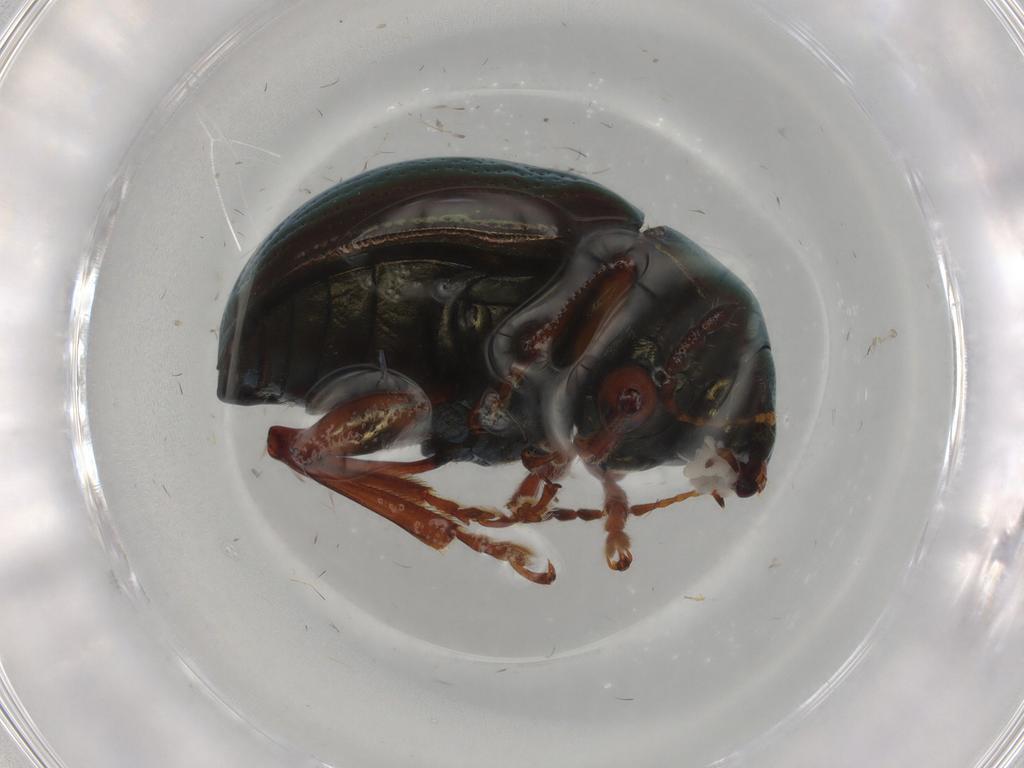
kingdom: Animalia
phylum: Arthropoda
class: Insecta
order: Coleoptera
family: Chrysomelidae
